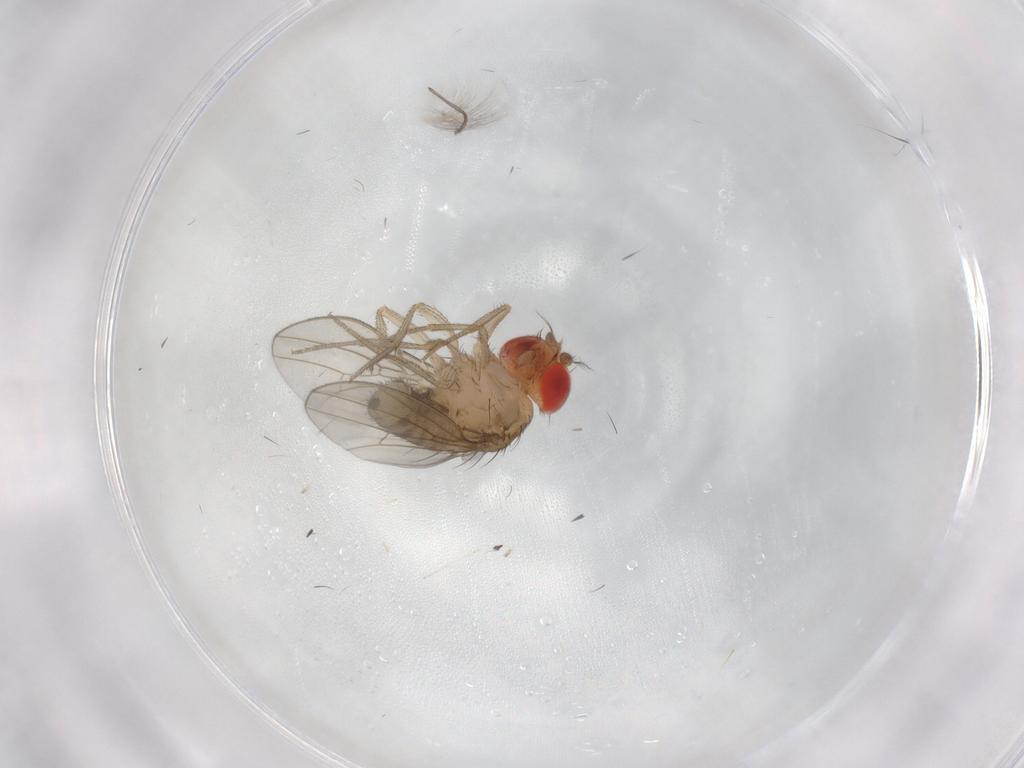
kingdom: Animalia
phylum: Arthropoda
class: Insecta
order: Diptera
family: Drosophilidae
